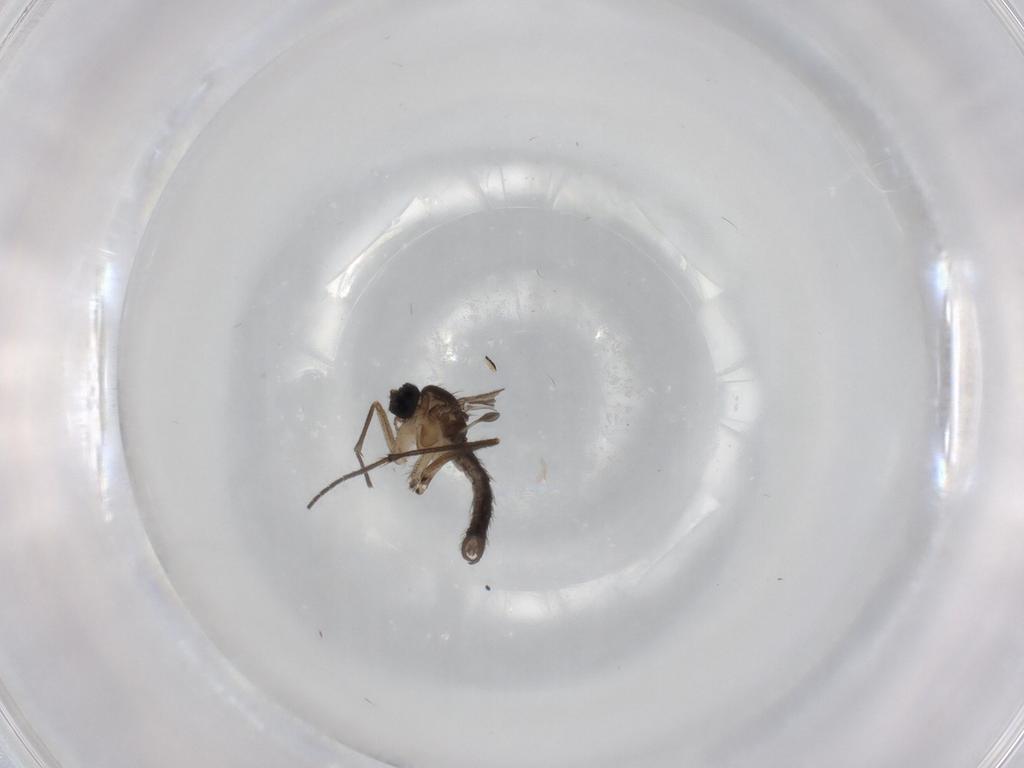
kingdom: Animalia
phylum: Arthropoda
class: Insecta
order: Diptera
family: Sciaridae
